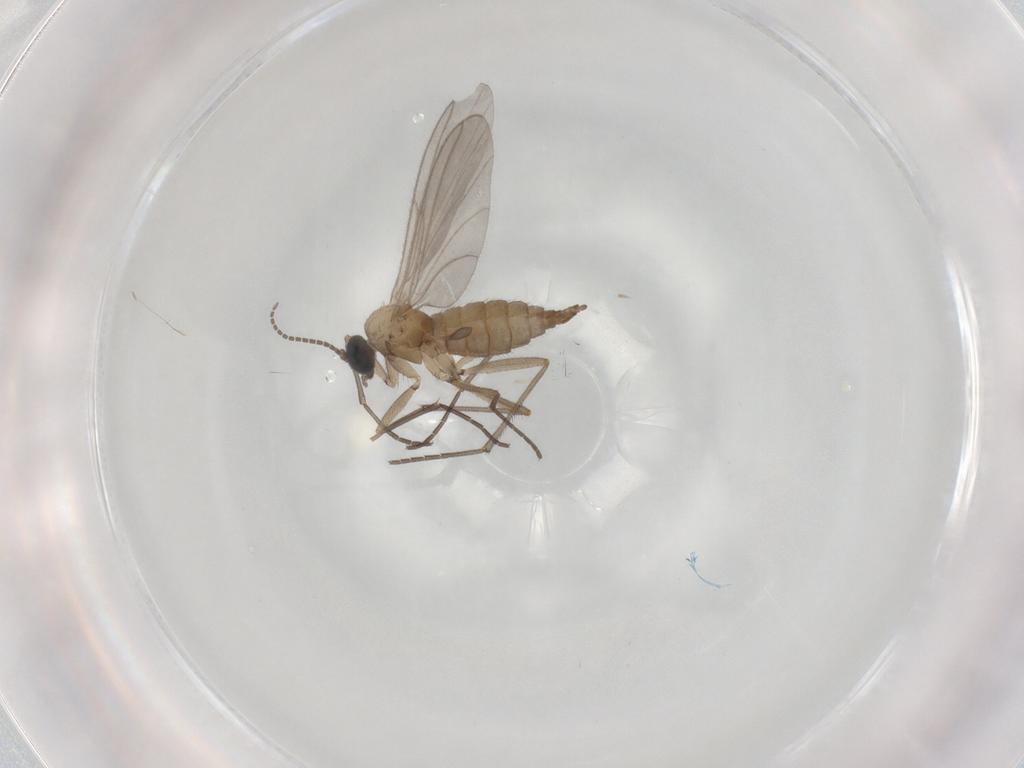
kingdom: Animalia
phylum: Arthropoda
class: Insecta
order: Diptera
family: Sciaridae
